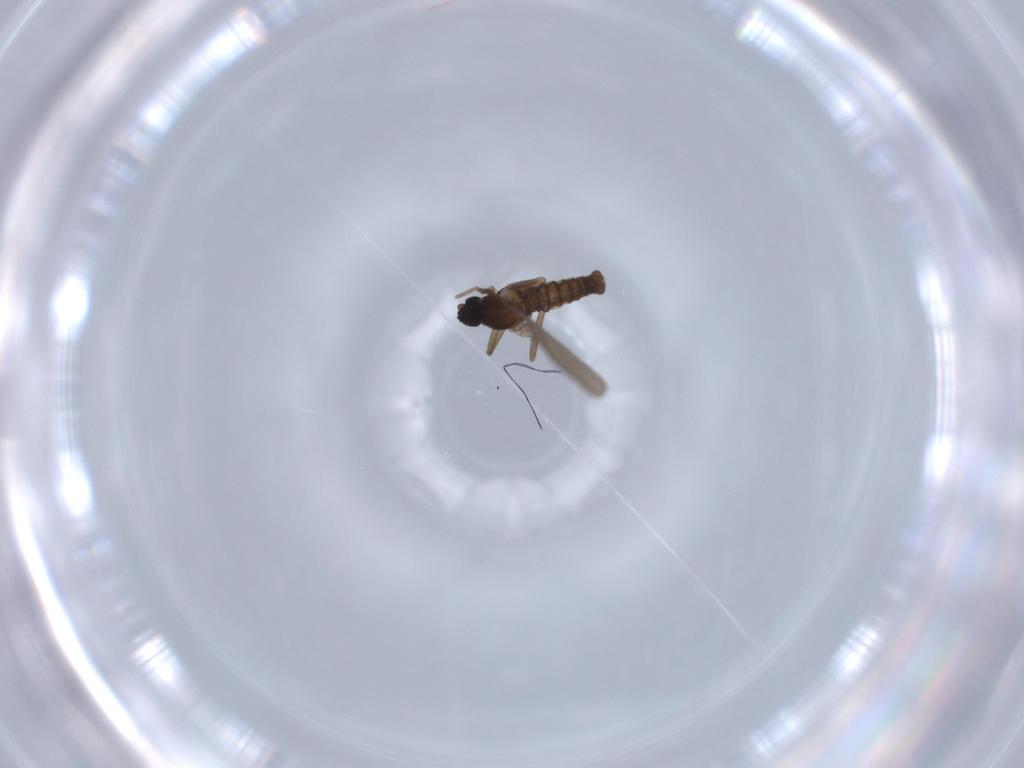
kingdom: Animalia
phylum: Arthropoda
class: Insecta
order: Diptera
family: Cecidomyiidae
